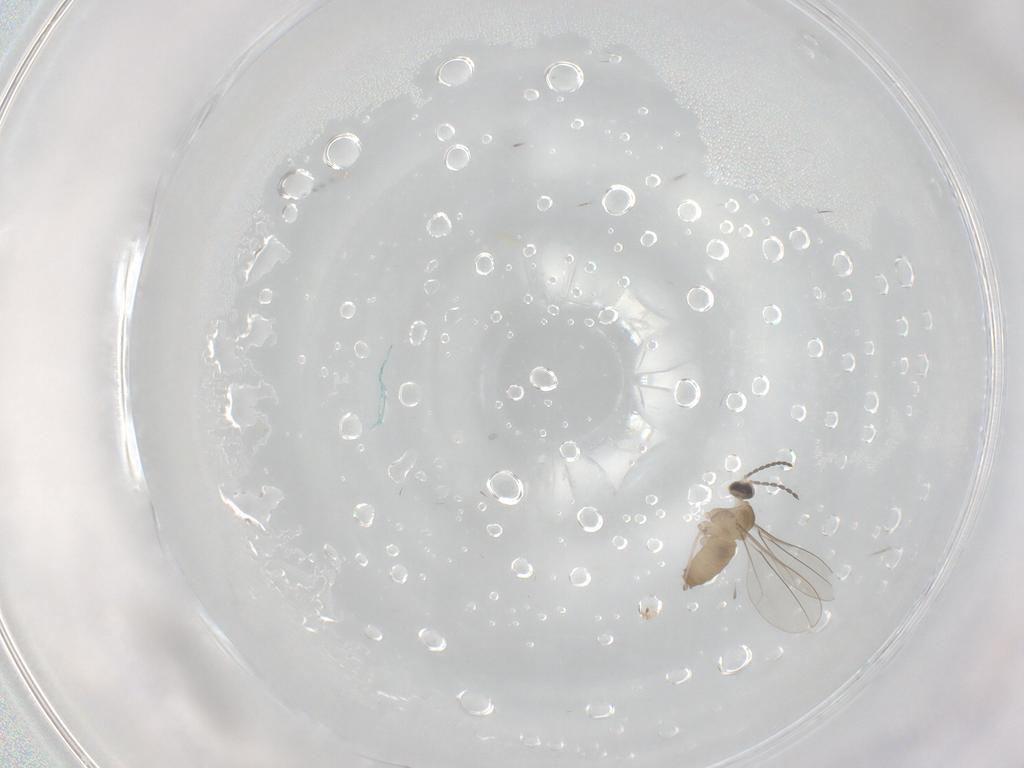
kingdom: Animalia
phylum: Arthropoda
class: Insecta
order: Diptera
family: Cecidomyiidae
